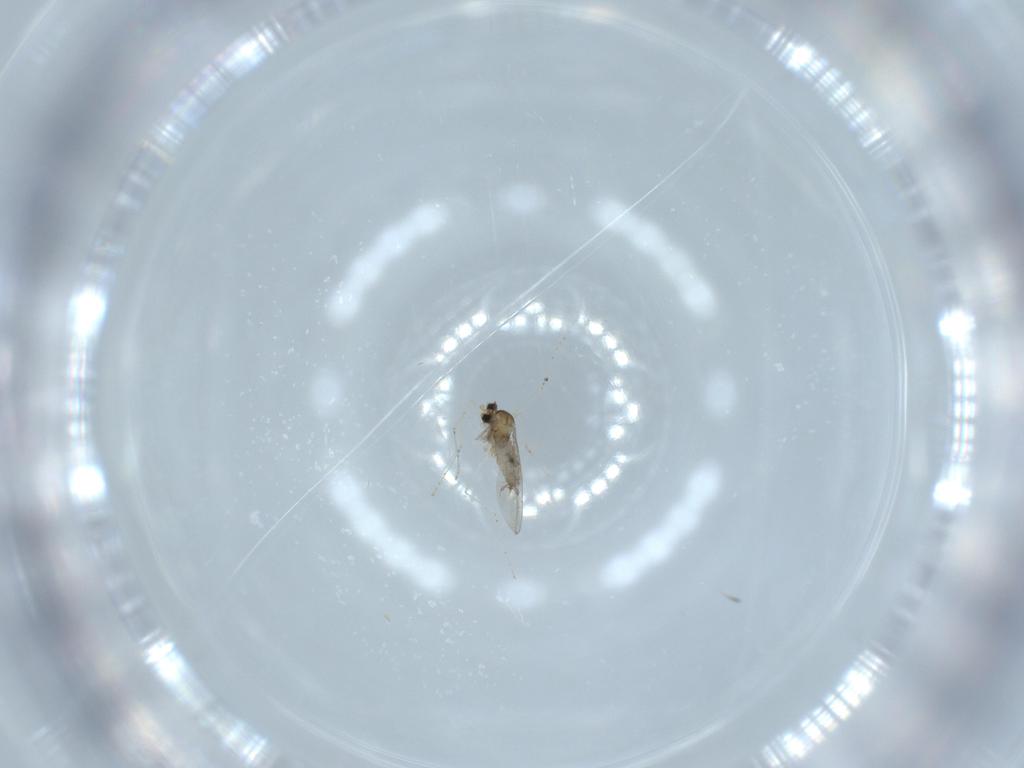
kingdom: Animalia
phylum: Arthropoda
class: Insecta
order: Diptera
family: Cecidomyiidae
